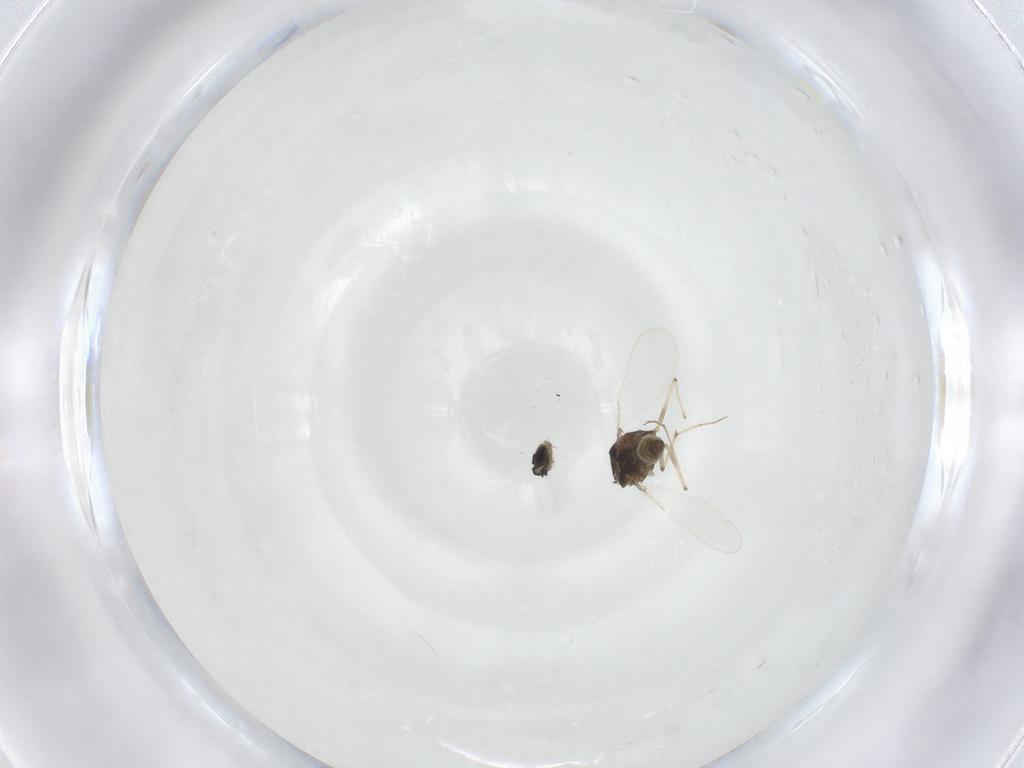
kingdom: Animalia
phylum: Arthropoda
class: Insecta
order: Diptera
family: Chironomidae
